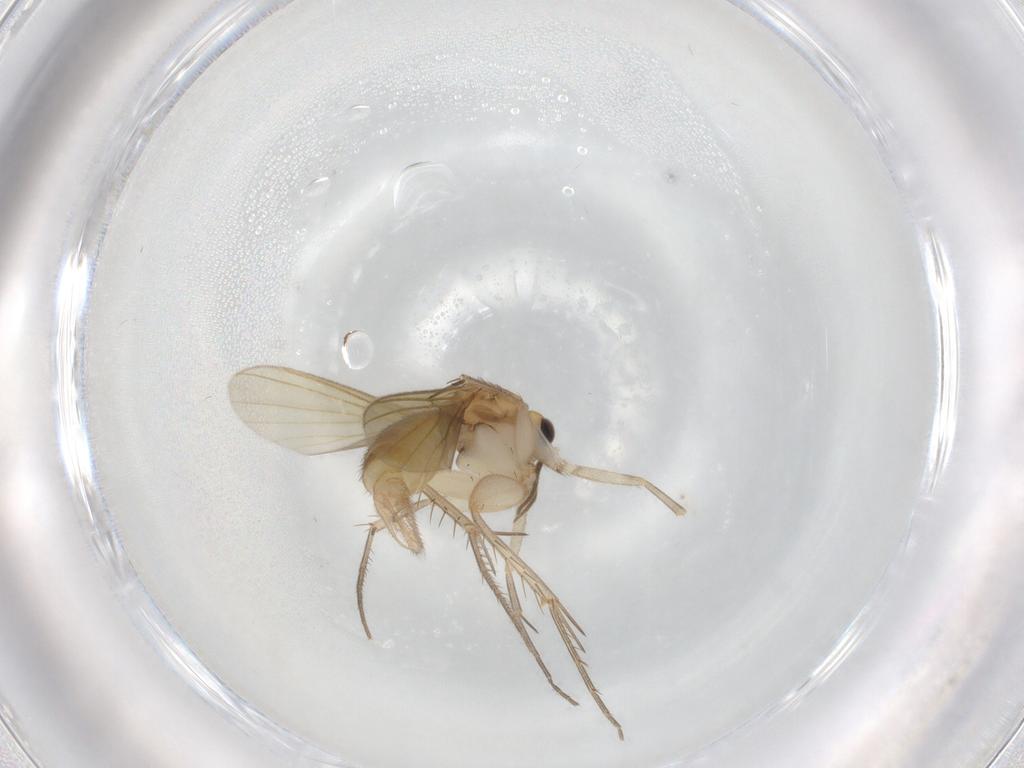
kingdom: Animalia
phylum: Arthropoda
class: Insecta
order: Diptera
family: Mycetophilidae
